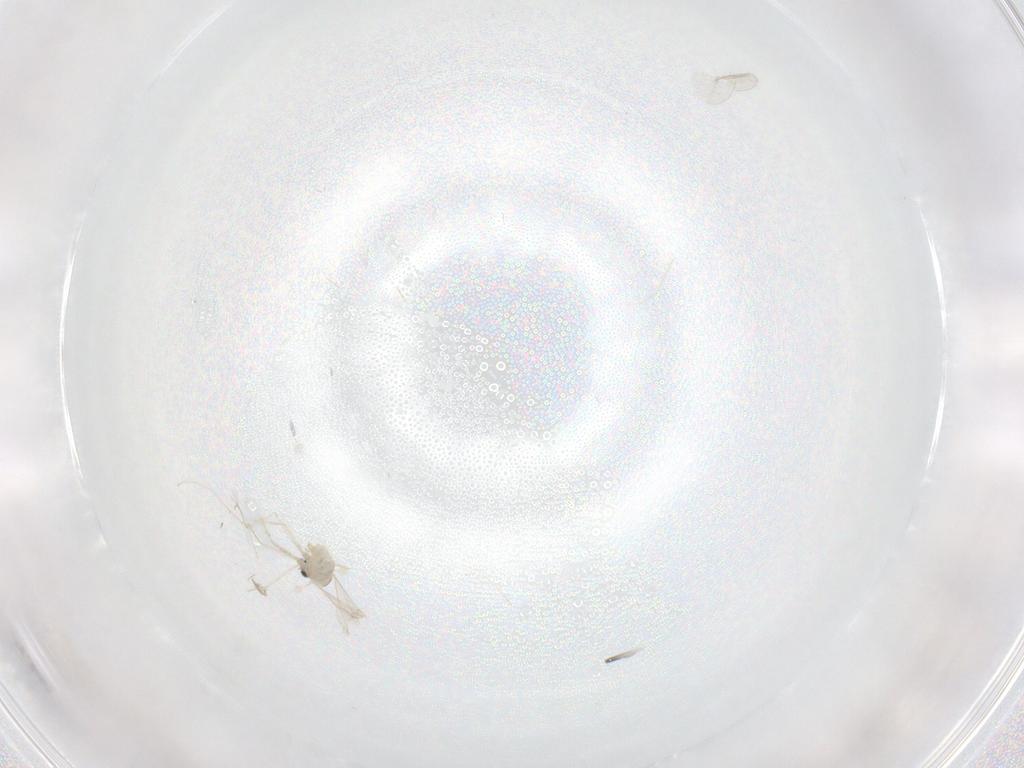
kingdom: Animalia
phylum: Arthropoda
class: Insecta
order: Diptera
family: Cecidomyiidae
